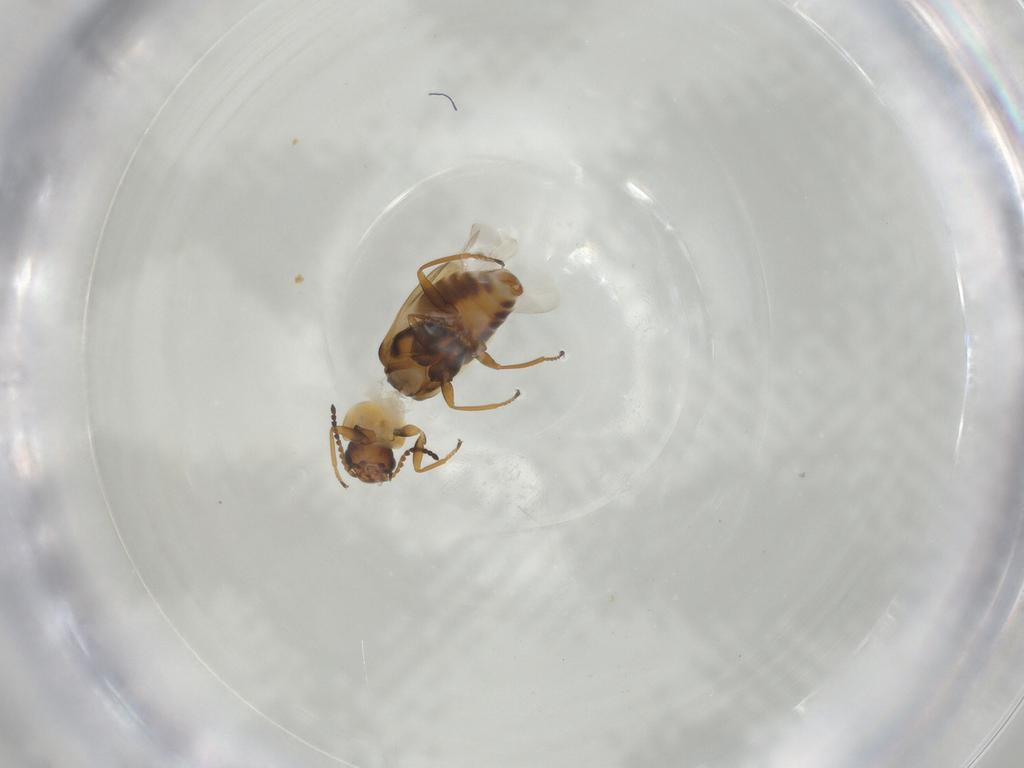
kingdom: Animalia
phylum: Arthropoda
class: Insecta
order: Coleoptera
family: Melyridae
